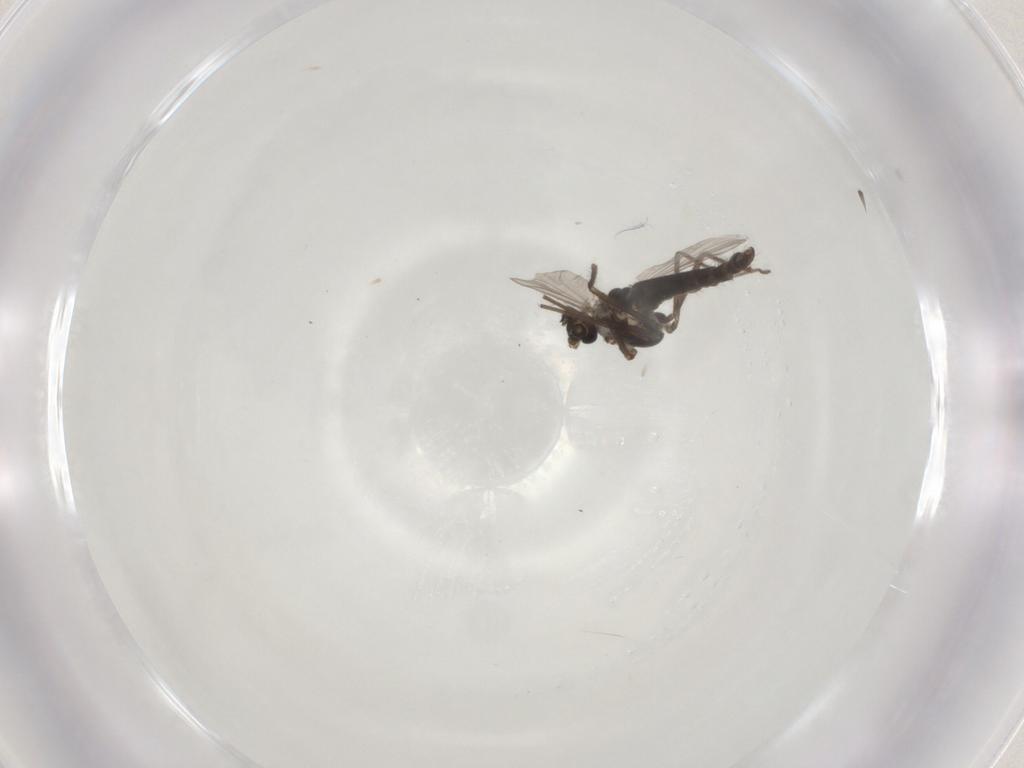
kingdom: Animalia
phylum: Arthropoda
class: Insecta
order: Diptera
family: Chironomidae
